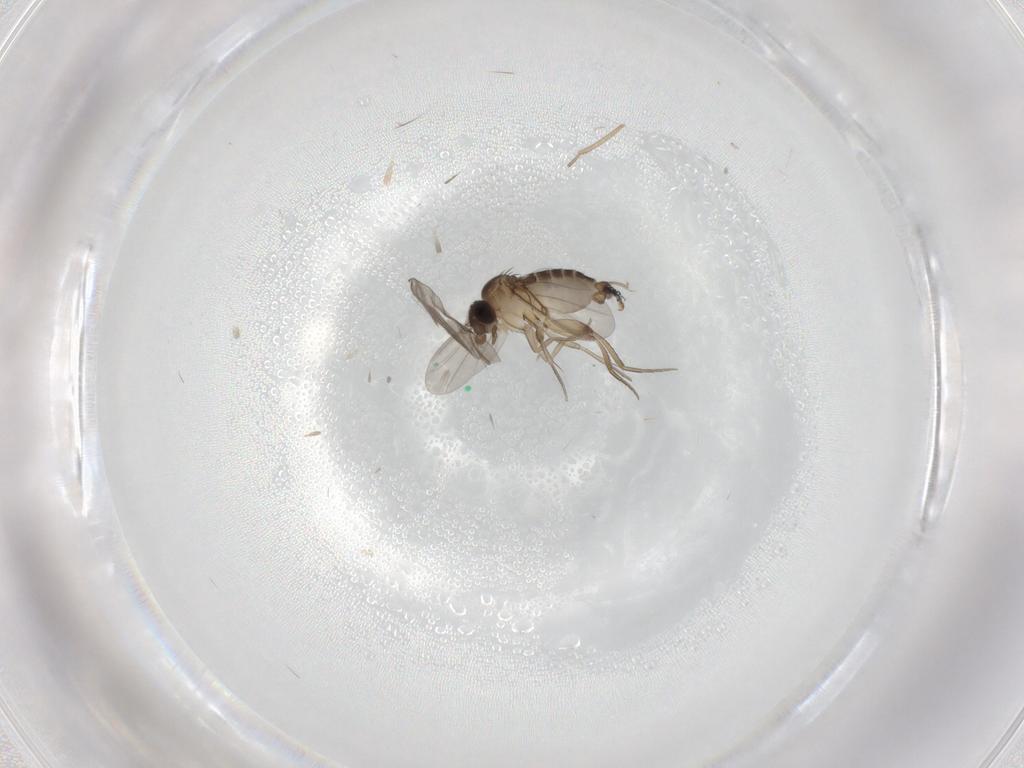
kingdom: Animalia
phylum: Arthropoda
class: Insecta
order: Diptera
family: Phoridae
